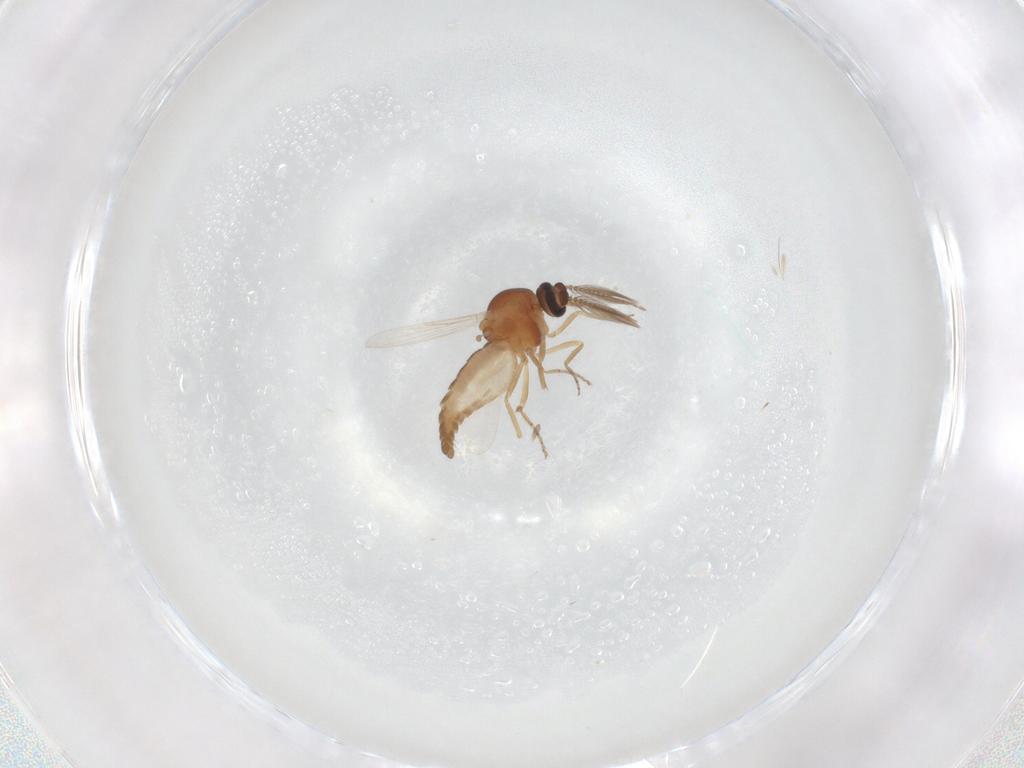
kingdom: Animalia
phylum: Arthropoda
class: Insecta
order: Diptera
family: Ceratopogonidae
